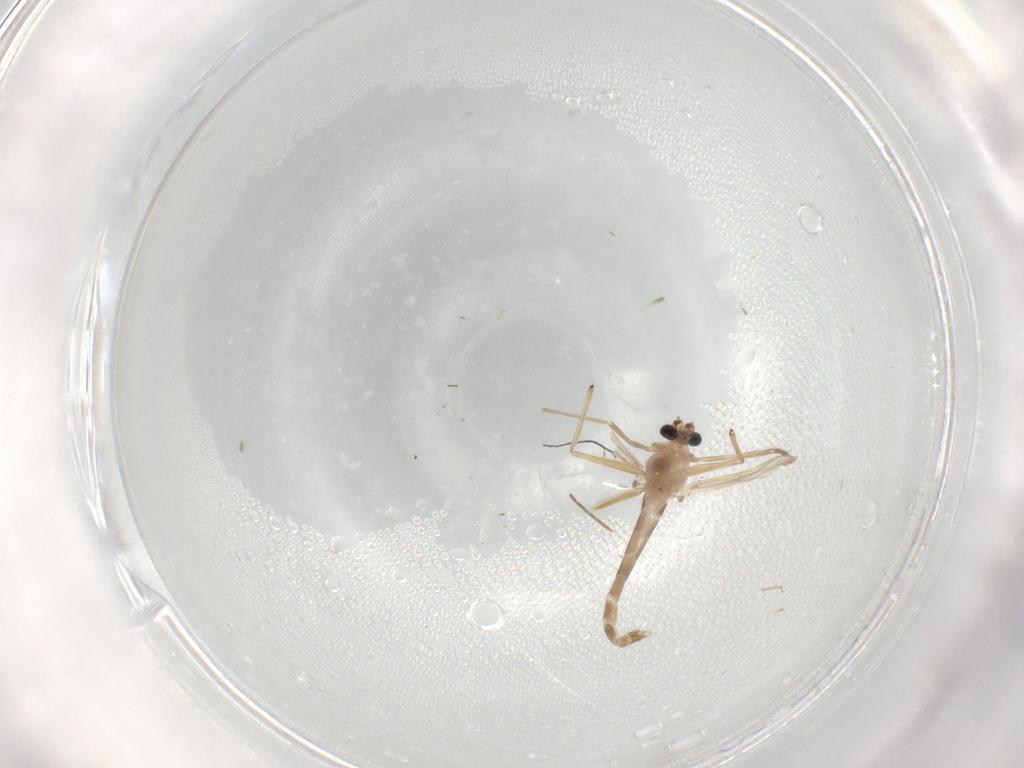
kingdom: Animalia
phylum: Arthropoda
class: Insecta
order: Diptera
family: Chironomidae
